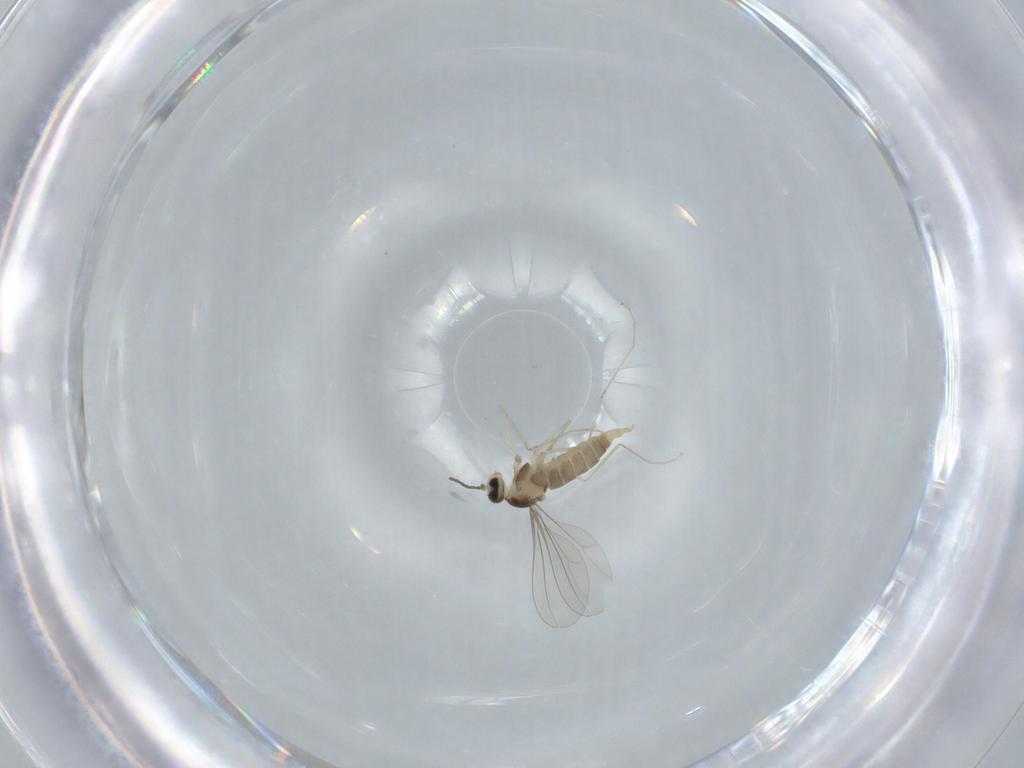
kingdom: Animalia
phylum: Arthropoda
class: Insecta
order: Diptera
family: Cecidomyiidae
